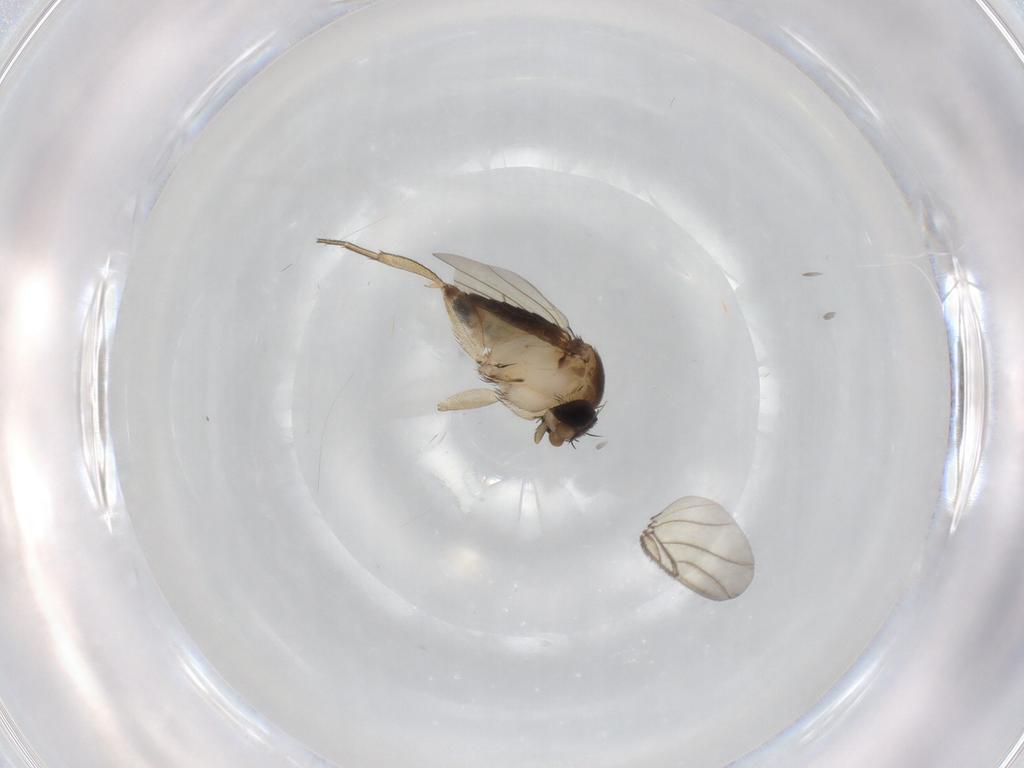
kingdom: Animalia
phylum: Arthropoda
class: Insecta
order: Diptera
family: Phoridae
